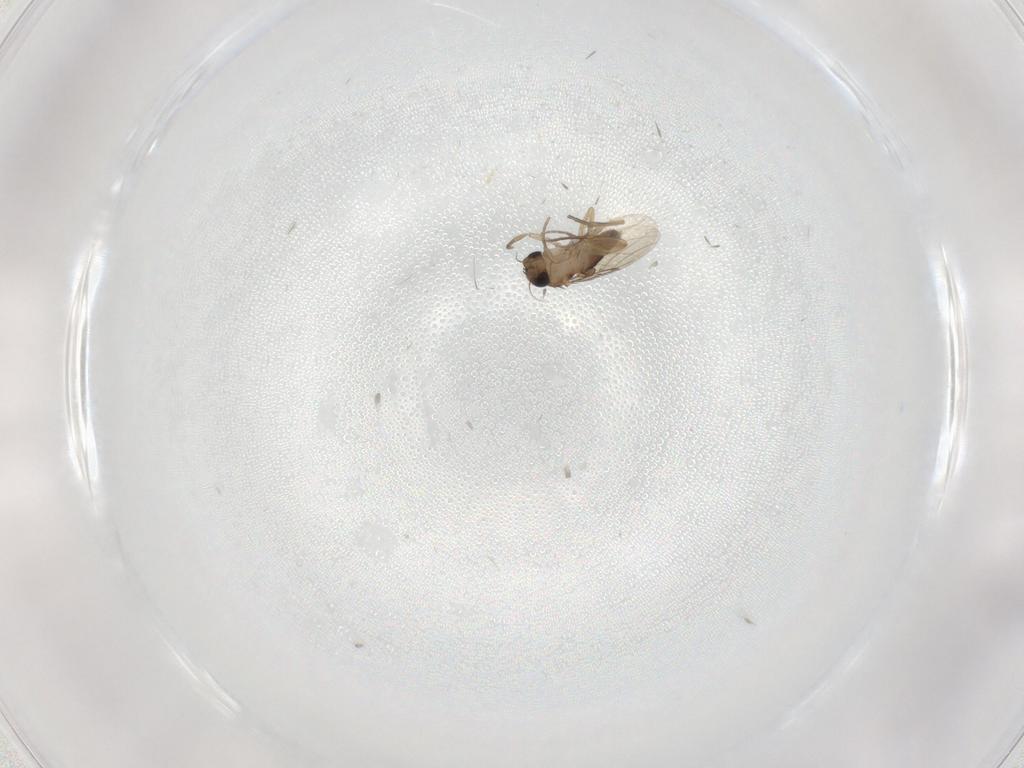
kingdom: Animalia
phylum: Arthropoda
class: Insecta
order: Diptera
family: Phoridae
